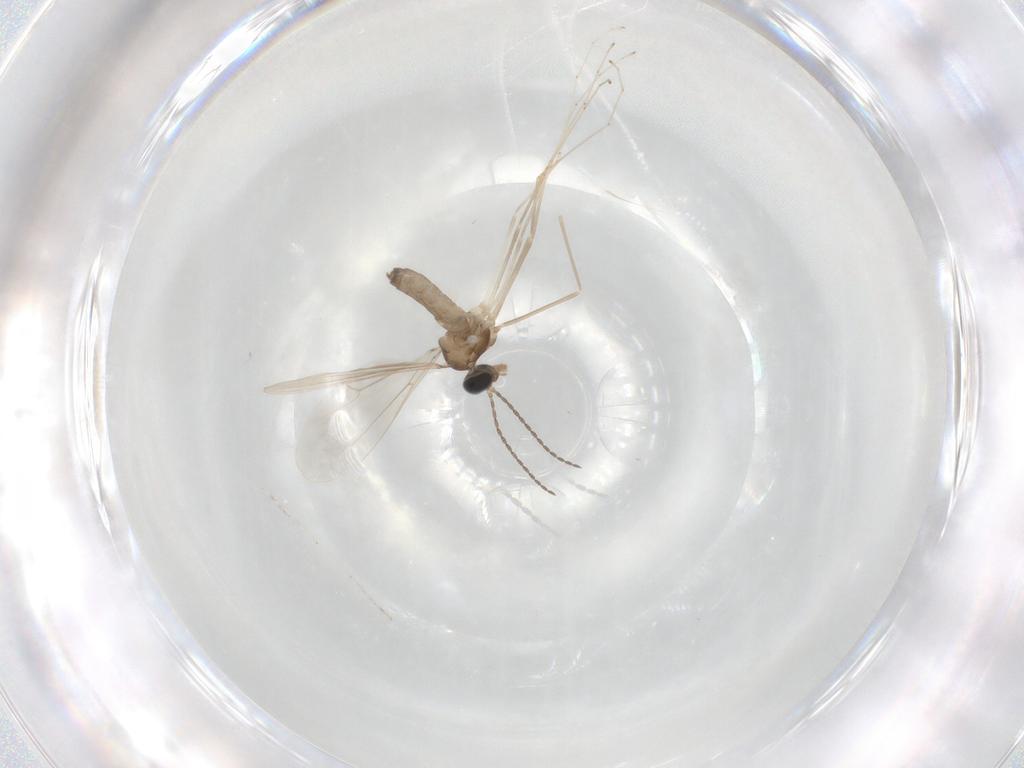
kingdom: Animalia
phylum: Arthropoda
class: Insecta
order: Diptera
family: Cecidomyiidae
